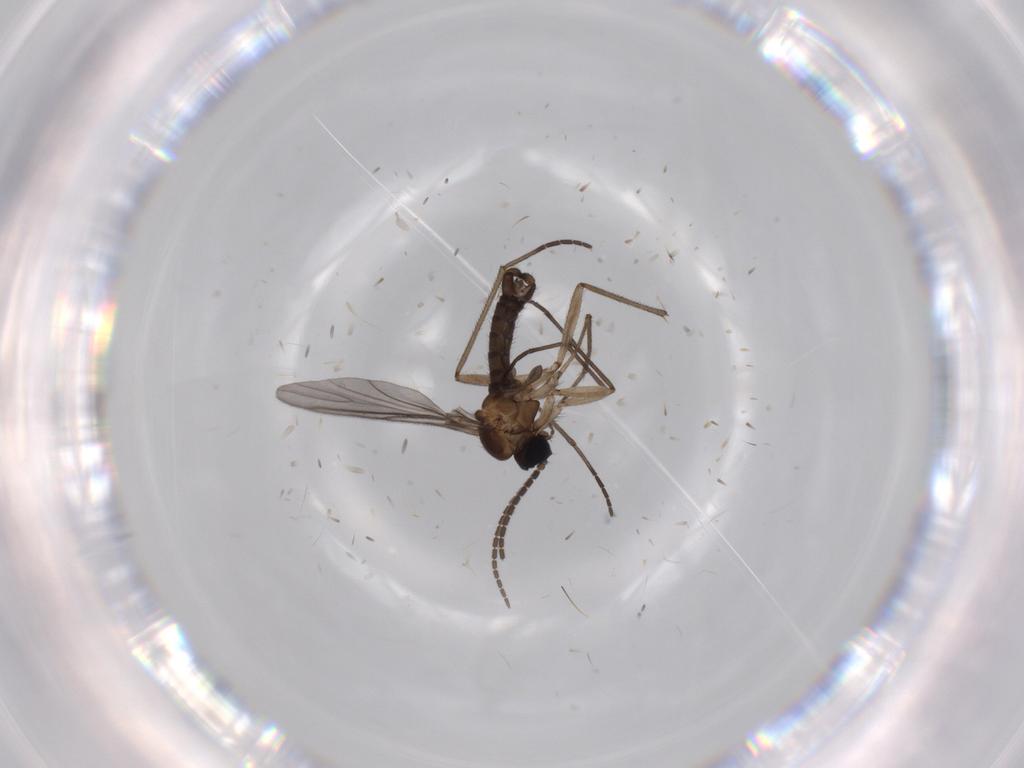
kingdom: Animalia
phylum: Arthropoda
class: Insecta
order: Diptera
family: Sciaridae
